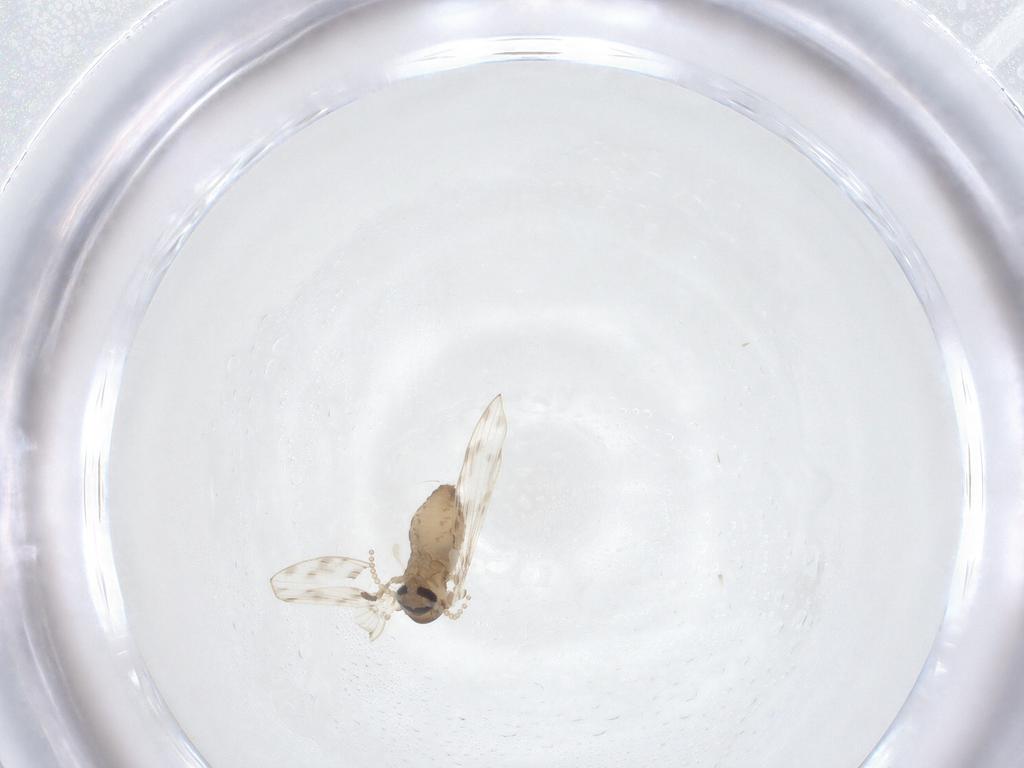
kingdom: Animalia
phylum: Arthropoda
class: Insecta
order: Diptera
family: Psychodidae
